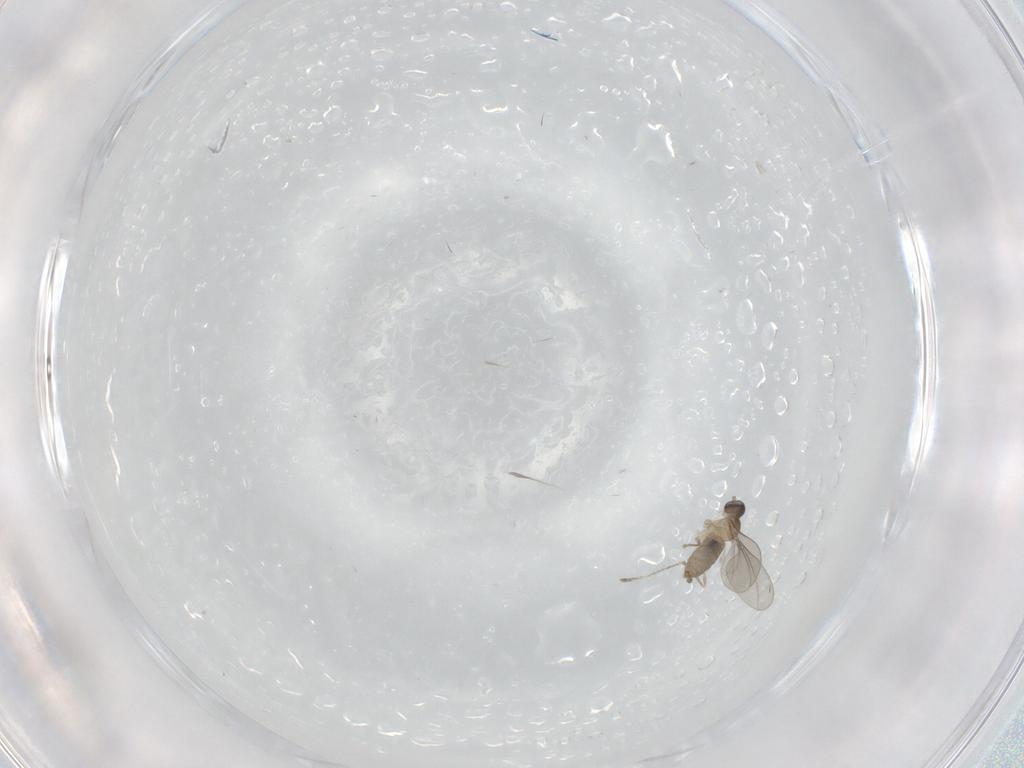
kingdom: Animalia
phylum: Arthropoda
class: Insecta
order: Diptera
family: Cecidomyiidae
